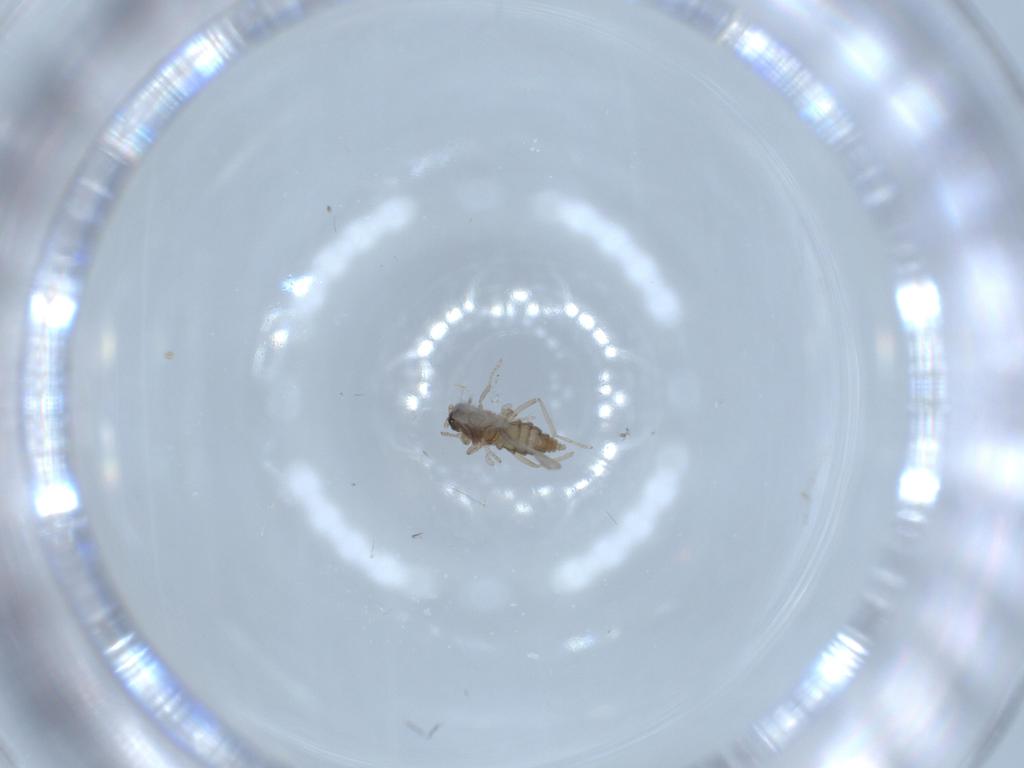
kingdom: Animalia
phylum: Arthropoda
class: Insecta
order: Diptera
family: Cecidomyiidae
